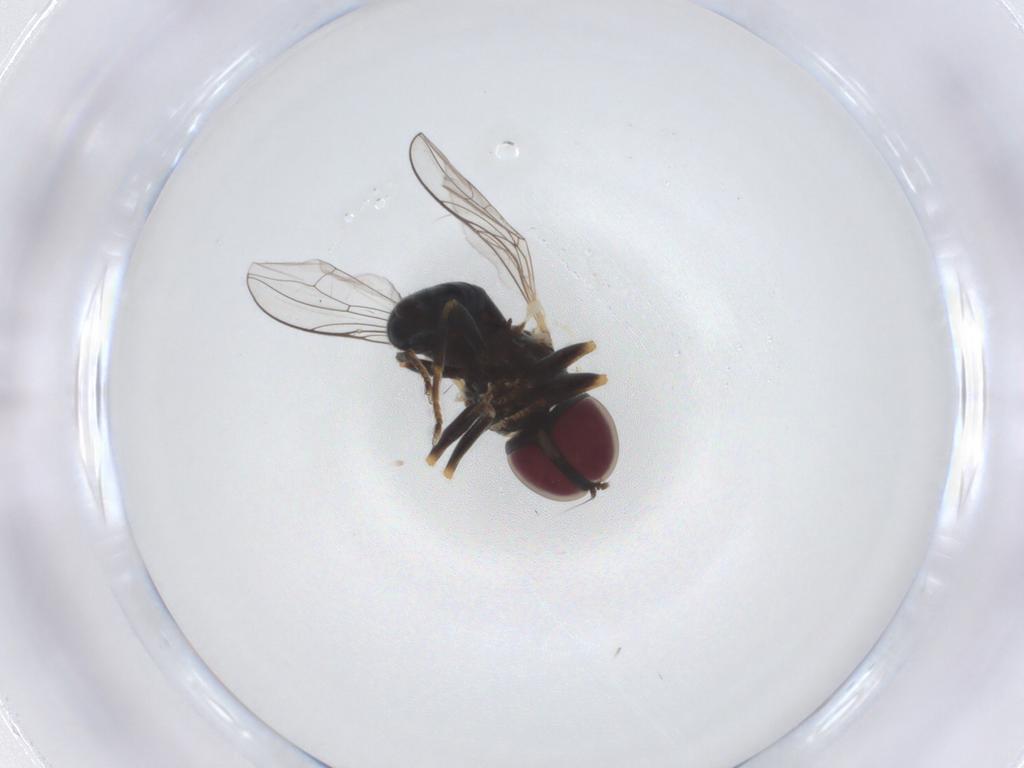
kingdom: Animalia
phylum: Arthropoda
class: Insecta
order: Diptera
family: Pipunculidae
